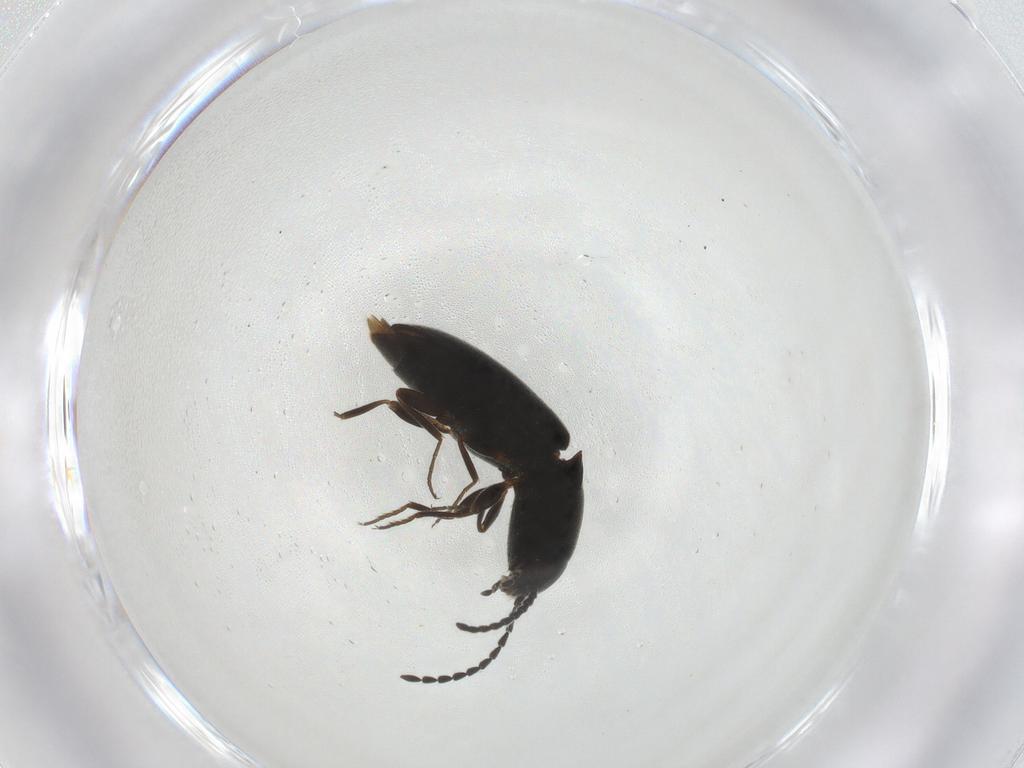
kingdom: Animalia
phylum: Arthropoda
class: Insecta
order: Coleoptera
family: Elateridae
